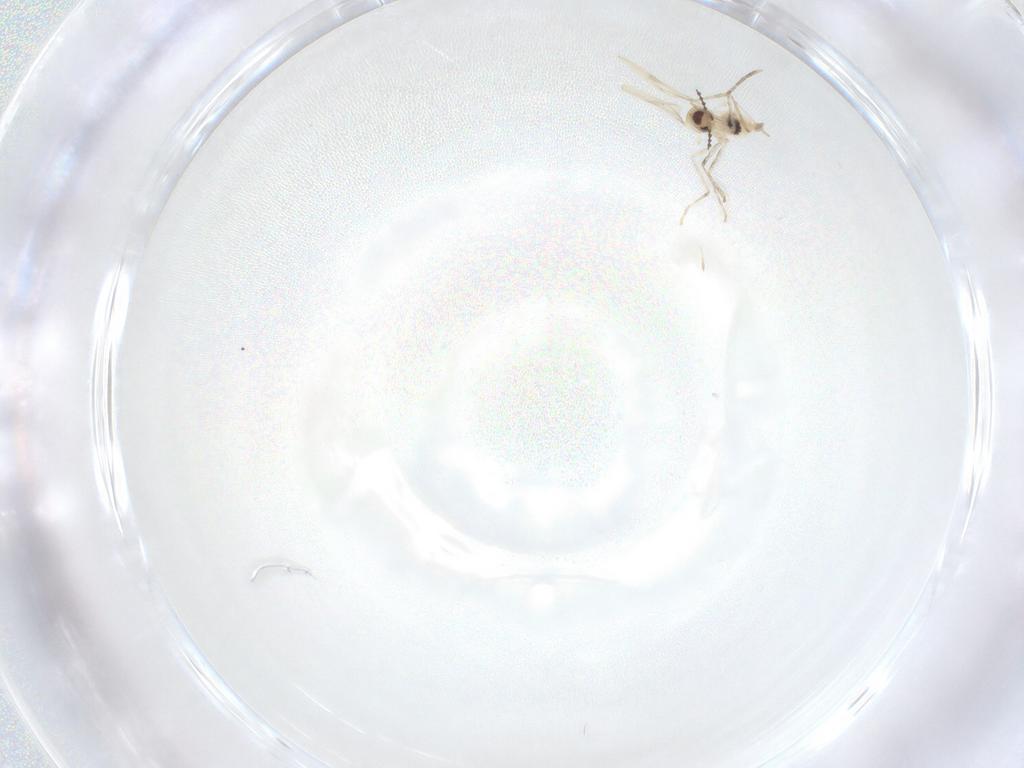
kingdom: Animalia
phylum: Arthropoda
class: Insecta
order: Diptera
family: Cecidomyiidae
